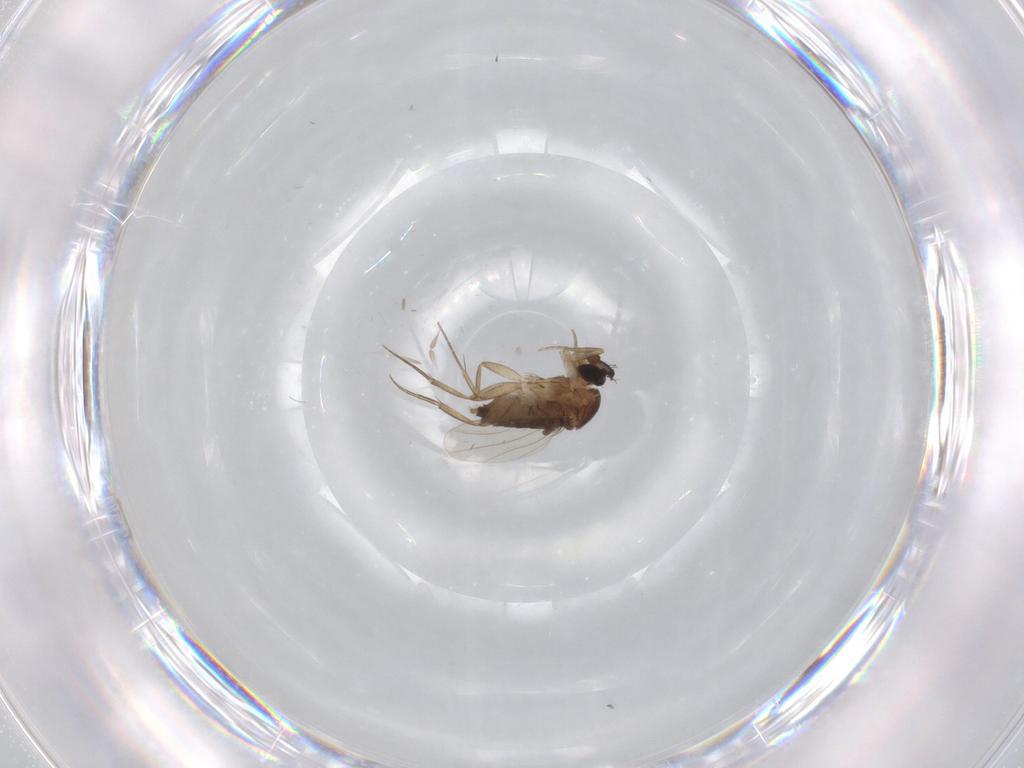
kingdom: Animalia
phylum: Arthropoda
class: Insecta
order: Diptera
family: Cecidomyiidae
